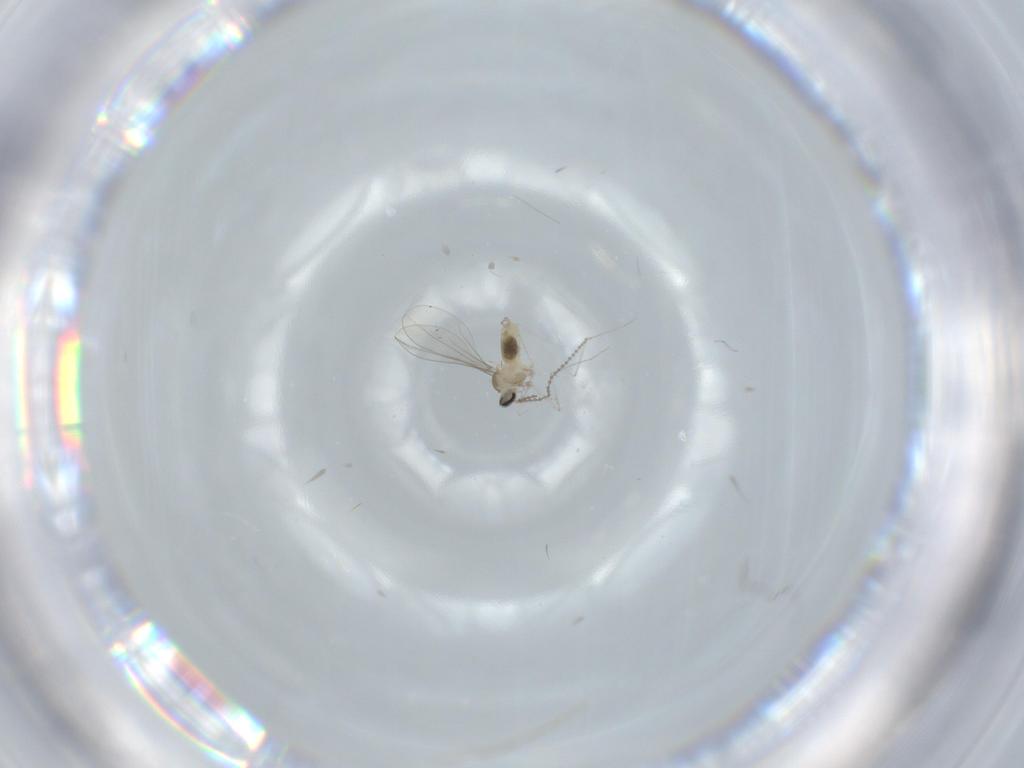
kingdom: Animalia
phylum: Arthropoda
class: Insecta
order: Diptera
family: Cecidomyiidae
